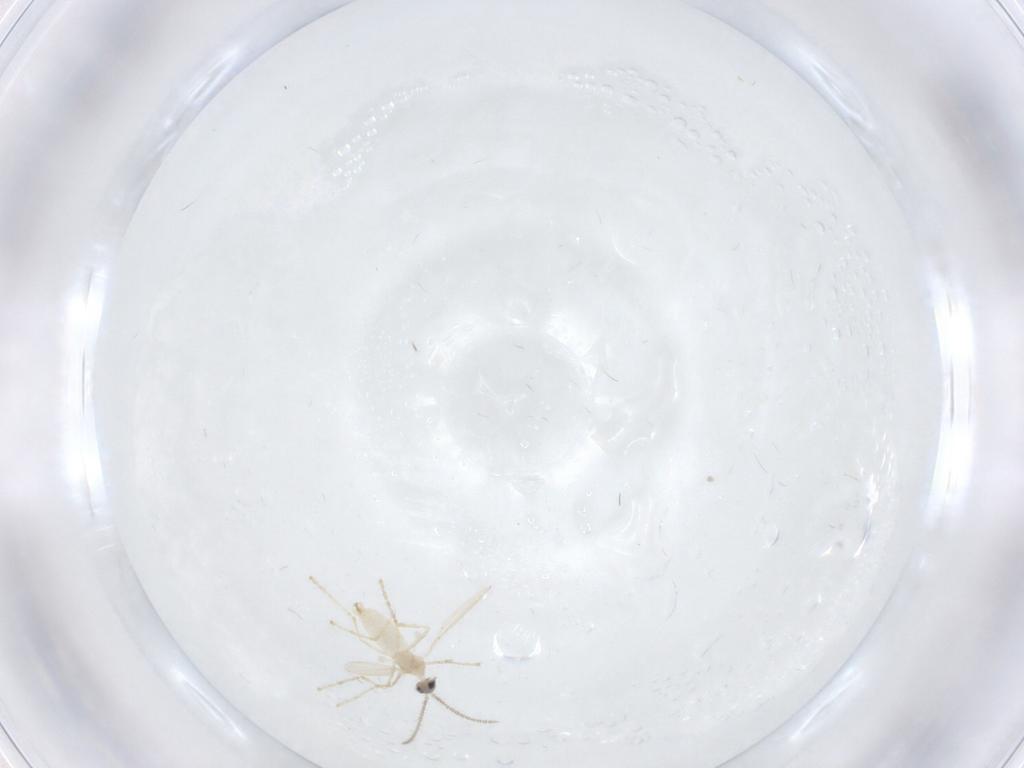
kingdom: Animalia
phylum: Arthropoda
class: Insecta
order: Diptera
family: Cecidomyiidae
